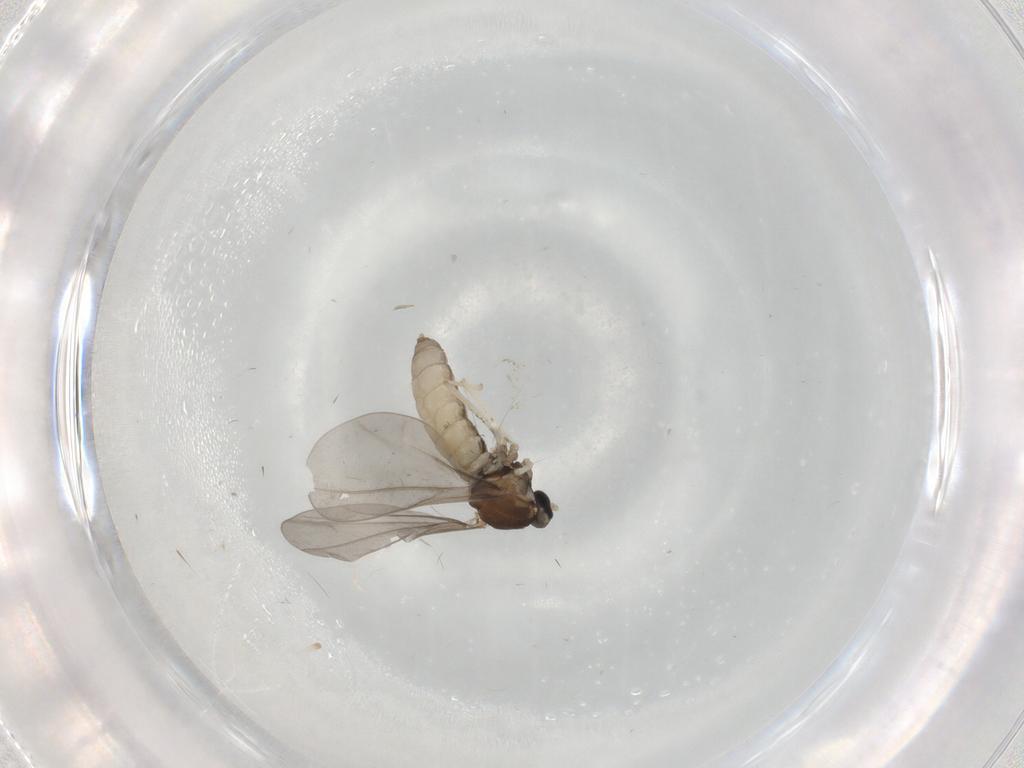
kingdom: Animalia
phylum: Arthropoda
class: Insecta
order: Diptera
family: Cecidomyiidae
